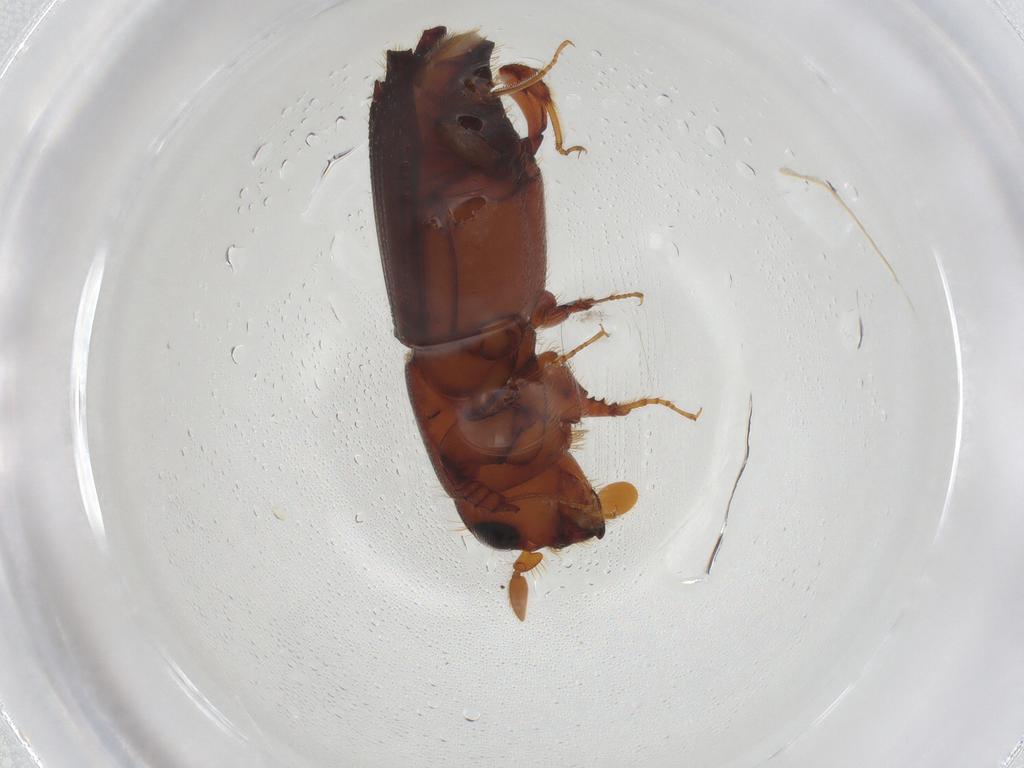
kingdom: Animalia
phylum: Arthropoda
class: Insecta
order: Coleoptera
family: Curculionidae
